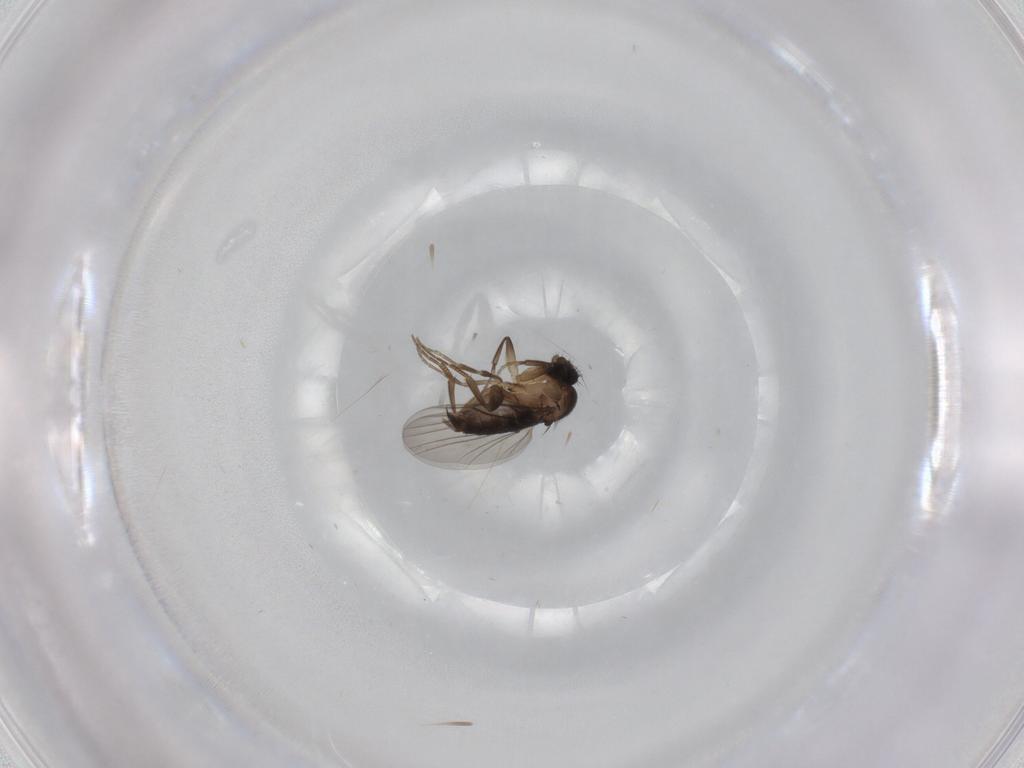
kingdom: Animalia
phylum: Arthropoda
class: Insecta
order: Diptera
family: Phoridae
